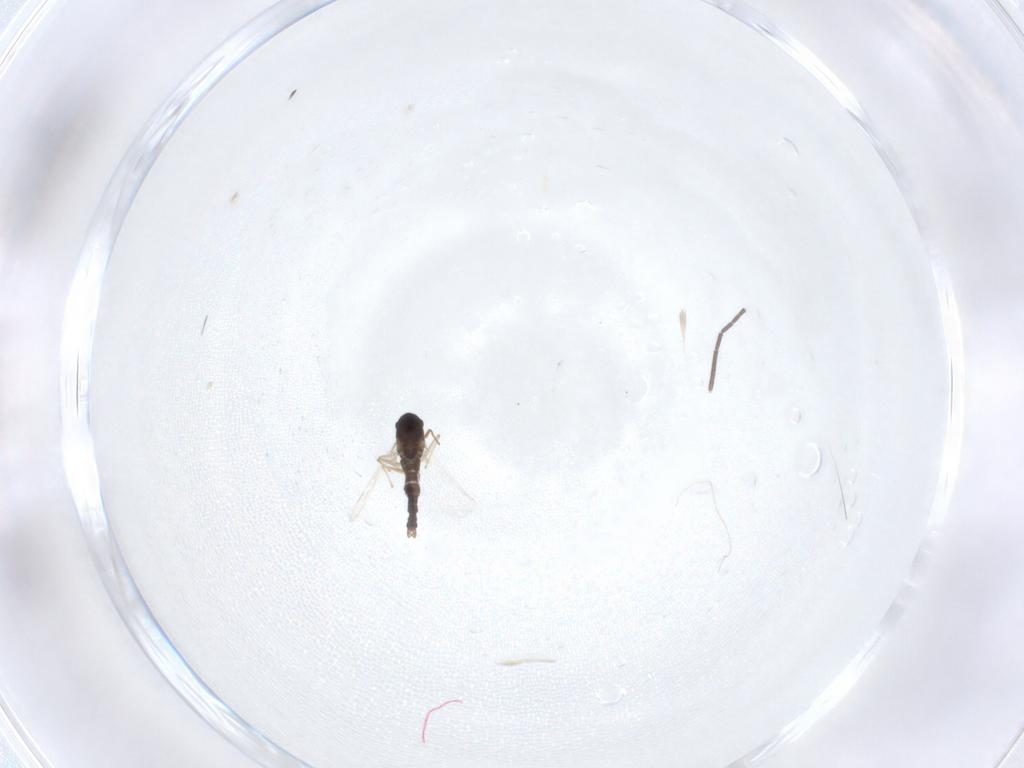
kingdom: Animalia
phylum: Arthropoda
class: Insecta
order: Diptera
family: Chironomidae
